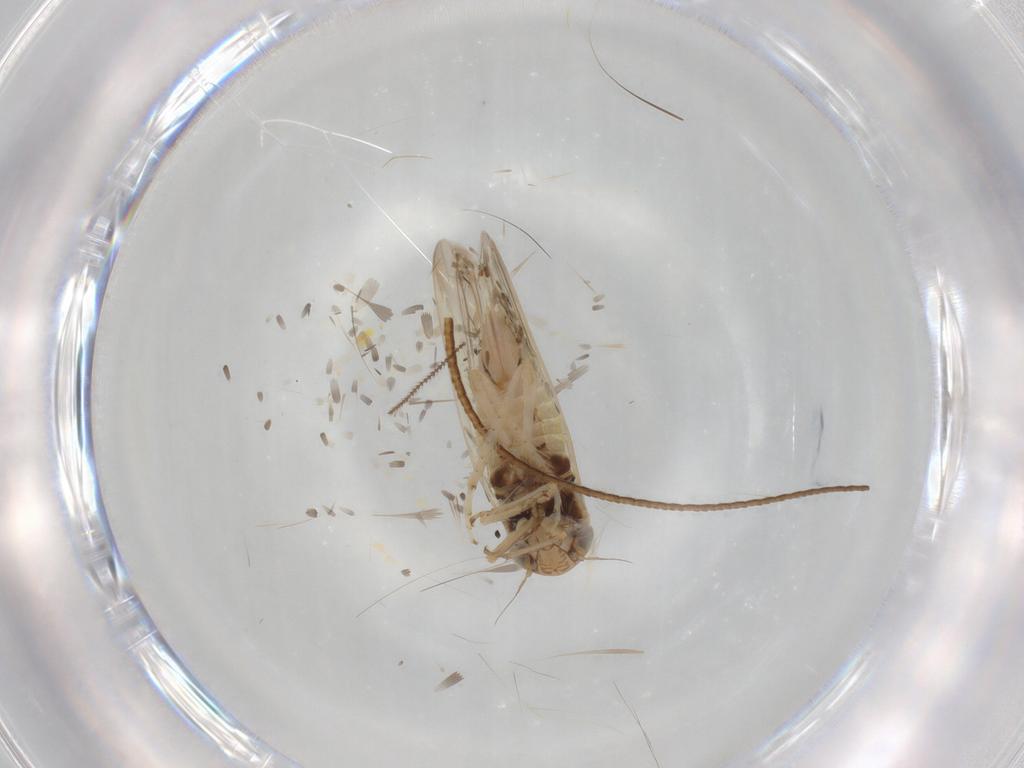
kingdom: Animalia
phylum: Arthropoda
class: Insecta
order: Hemiptera
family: Cicadellidae
